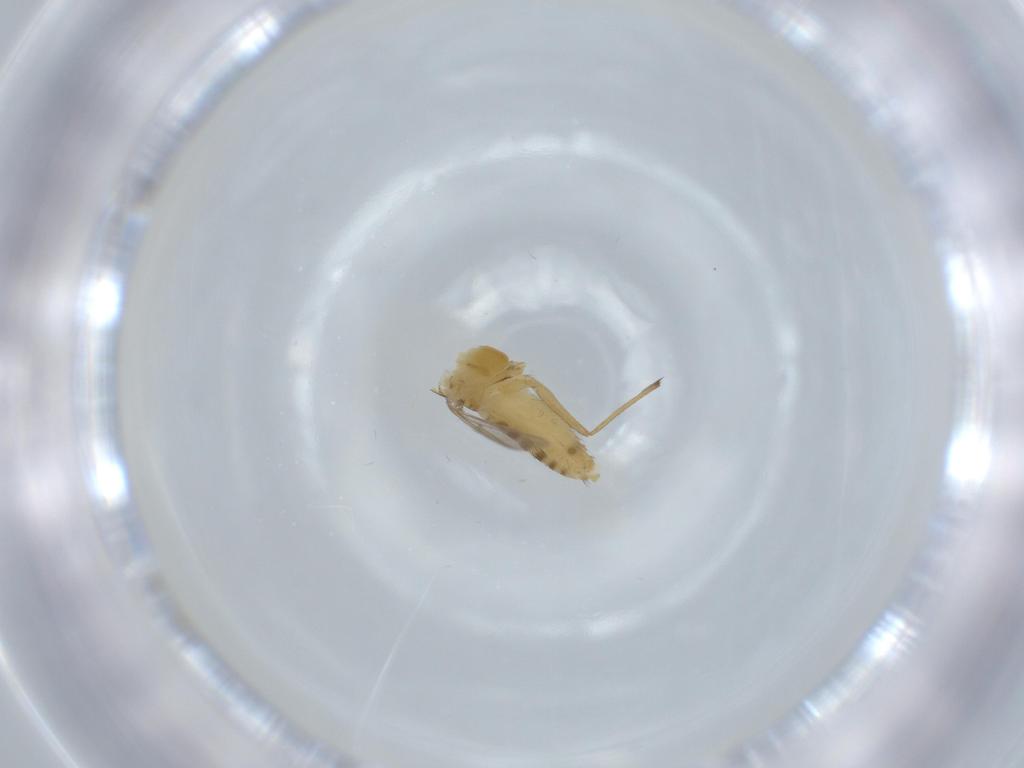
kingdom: Animalia
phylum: Arthropoda
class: Insecta
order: Diptera
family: Chironomidae
